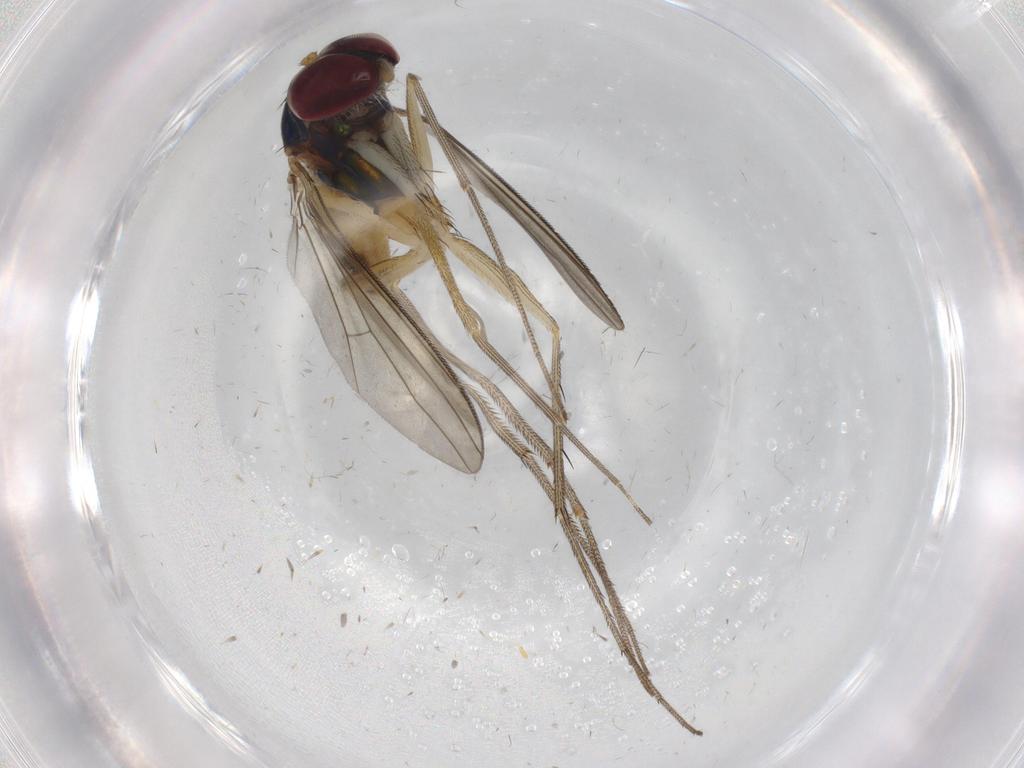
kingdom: Animalia
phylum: Arthropoda
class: Insecta
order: Diptera
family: Dolichopodidae
